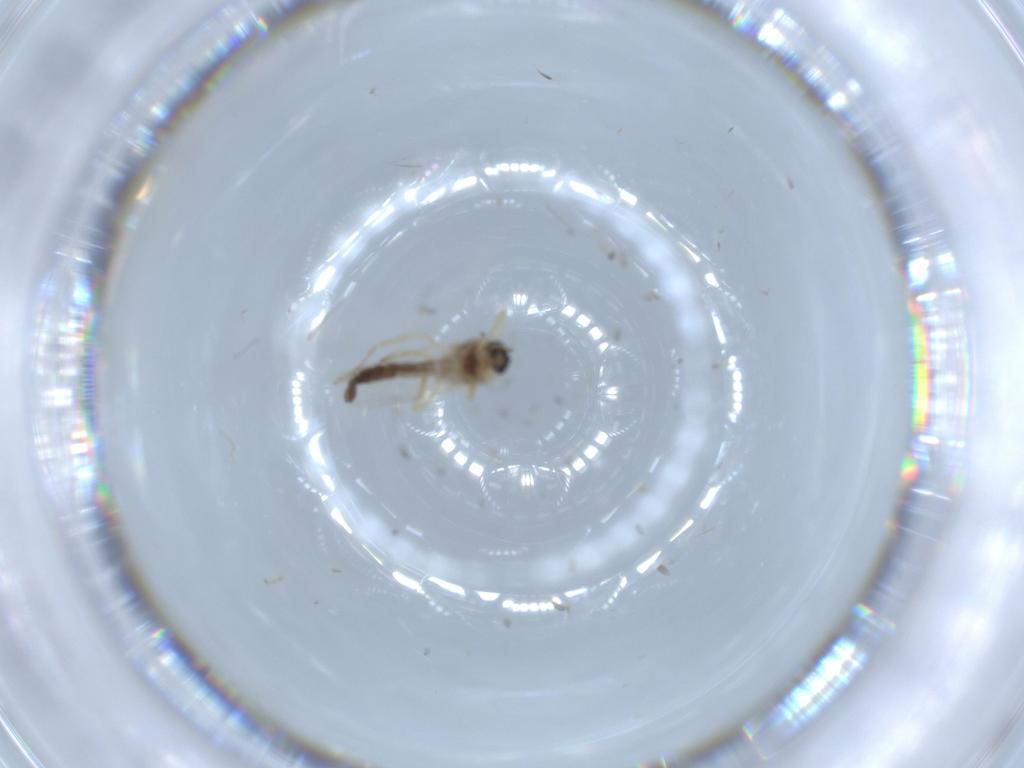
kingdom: Animalia
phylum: Arthropoda
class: Insecta
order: Diptera
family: Ceratopogonidae
